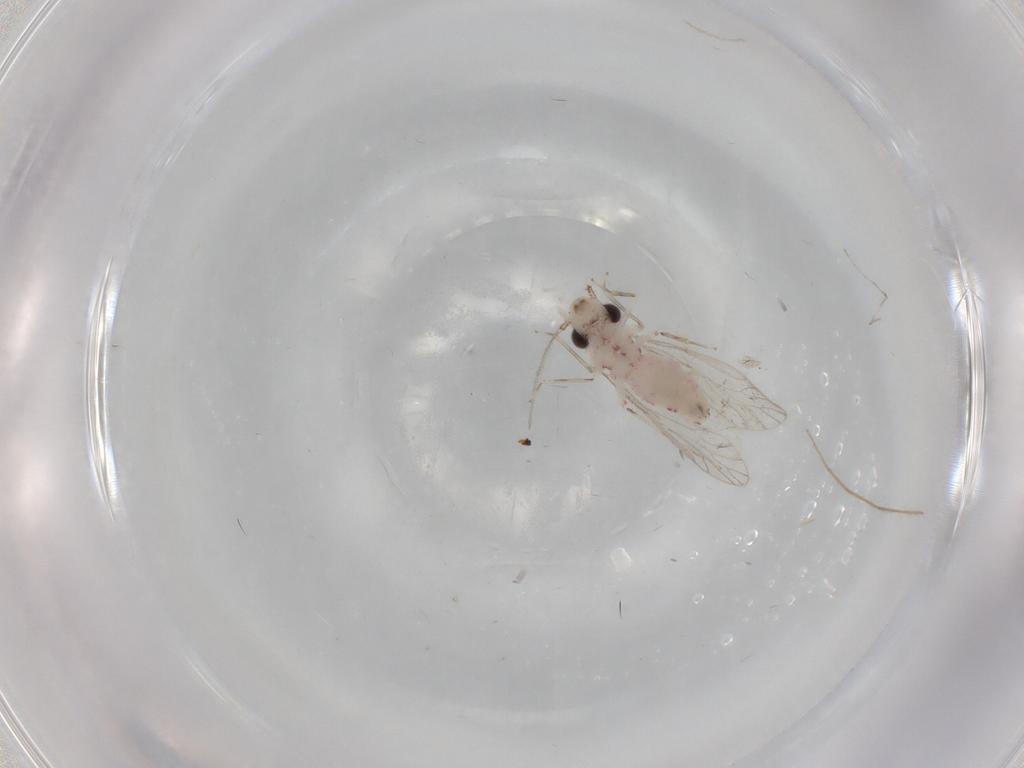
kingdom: Animalia
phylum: Arthropoda
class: Insecta
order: Psocodea
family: Caeciliusidae
